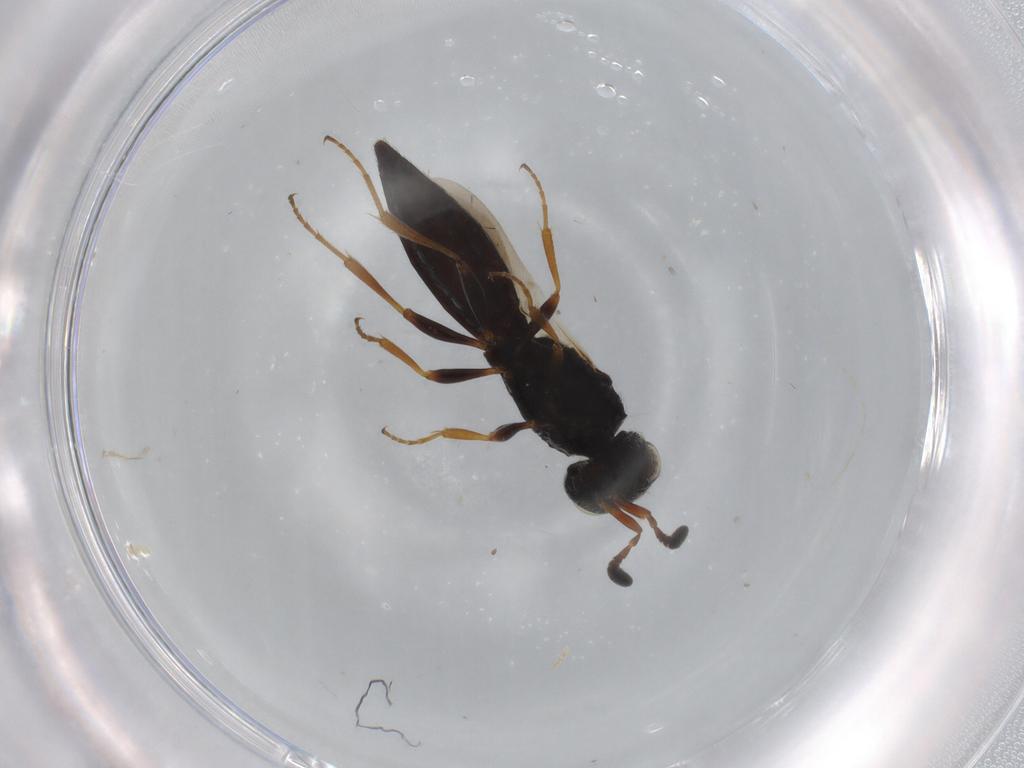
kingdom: Animalia
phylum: Arthropoda
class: Insecta
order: Hymenoptera
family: Scelionidae
